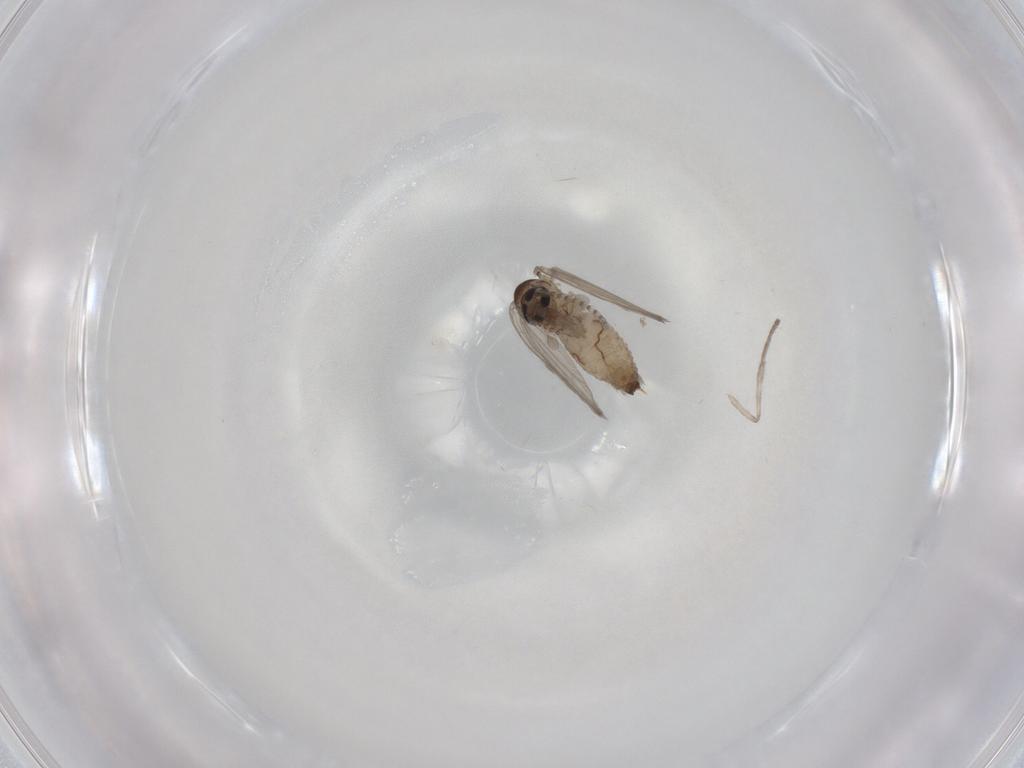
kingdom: Animalia
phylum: Arthropoda
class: Insecta
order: Diptera
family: Psychodidae
